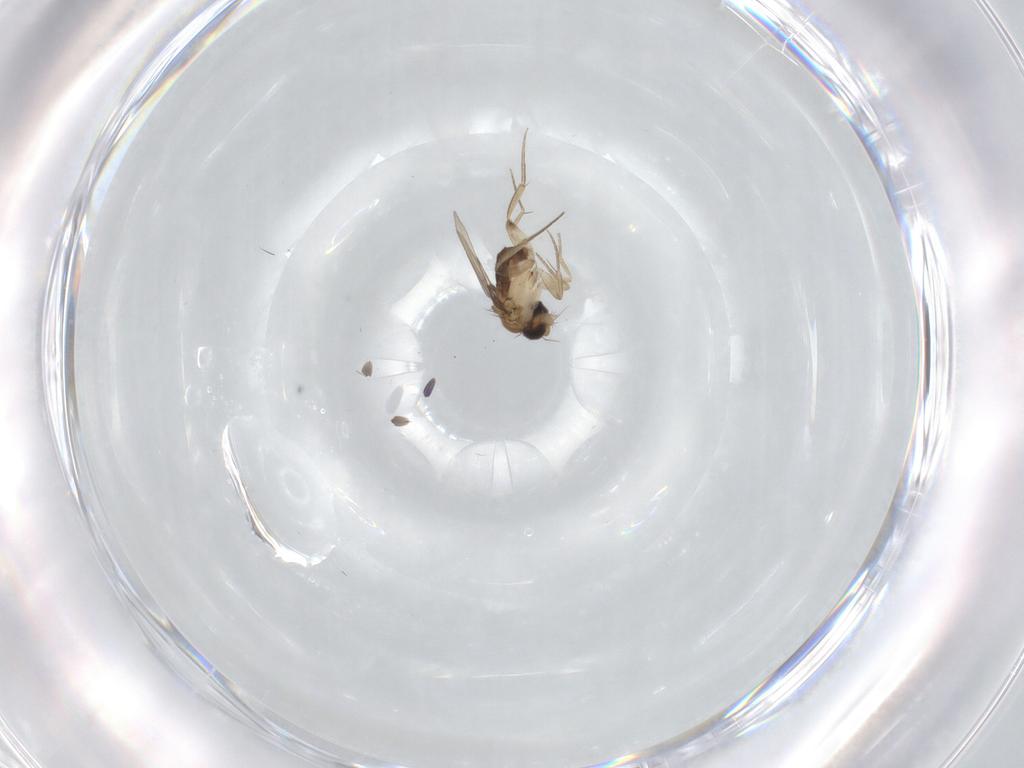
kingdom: Animalia
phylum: Arthropoda
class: Insecta
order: Diptera
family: Phoridae
